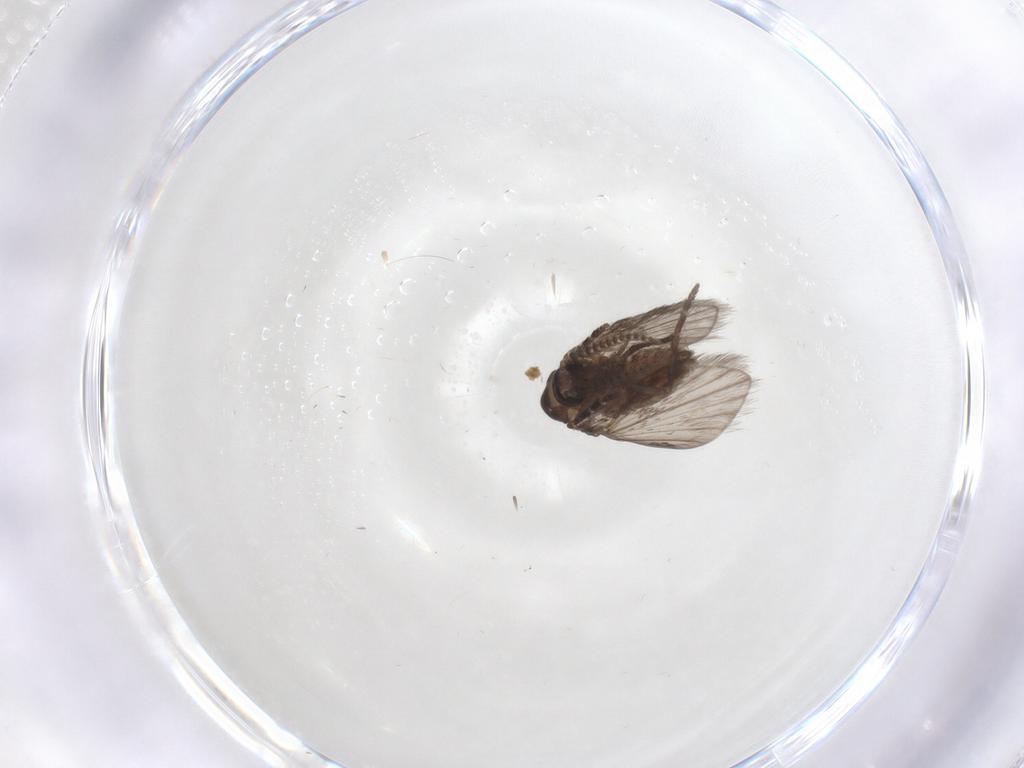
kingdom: Animalia
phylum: Arthropoda
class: Insecta
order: Diptera
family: Psychodidae
